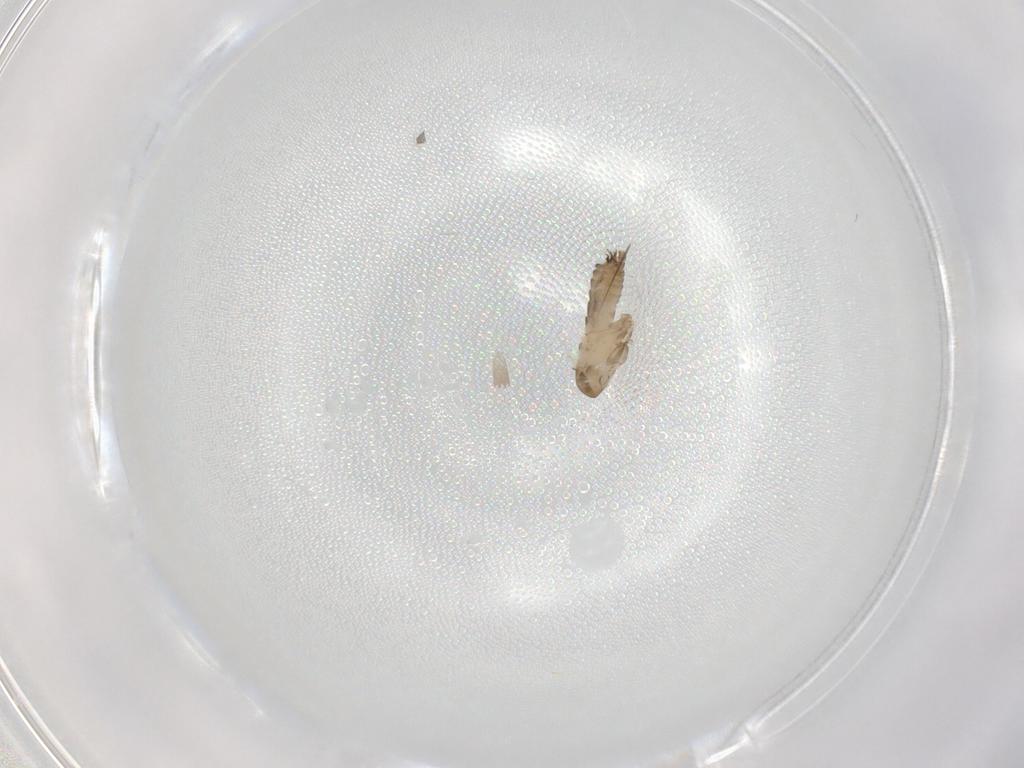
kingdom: Animalia
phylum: Arthropoda
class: Insecta
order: Diptera
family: Psychodidae
